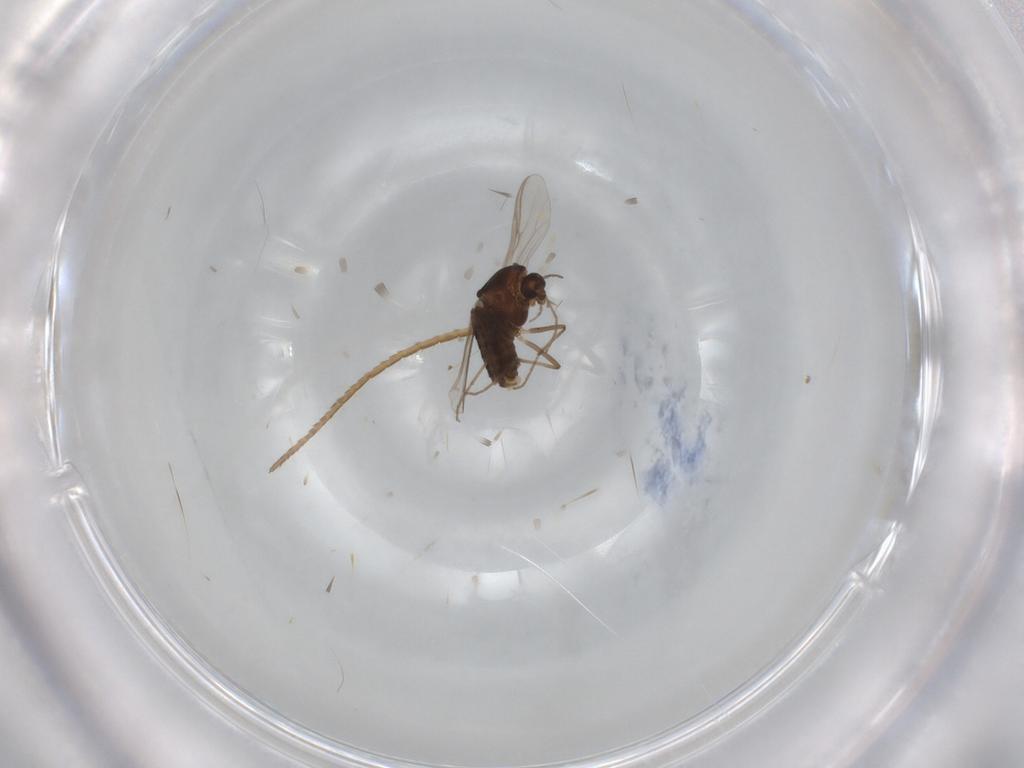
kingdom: Animalia
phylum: Arthropoda
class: Insecta
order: Diptera
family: Chironomidae
